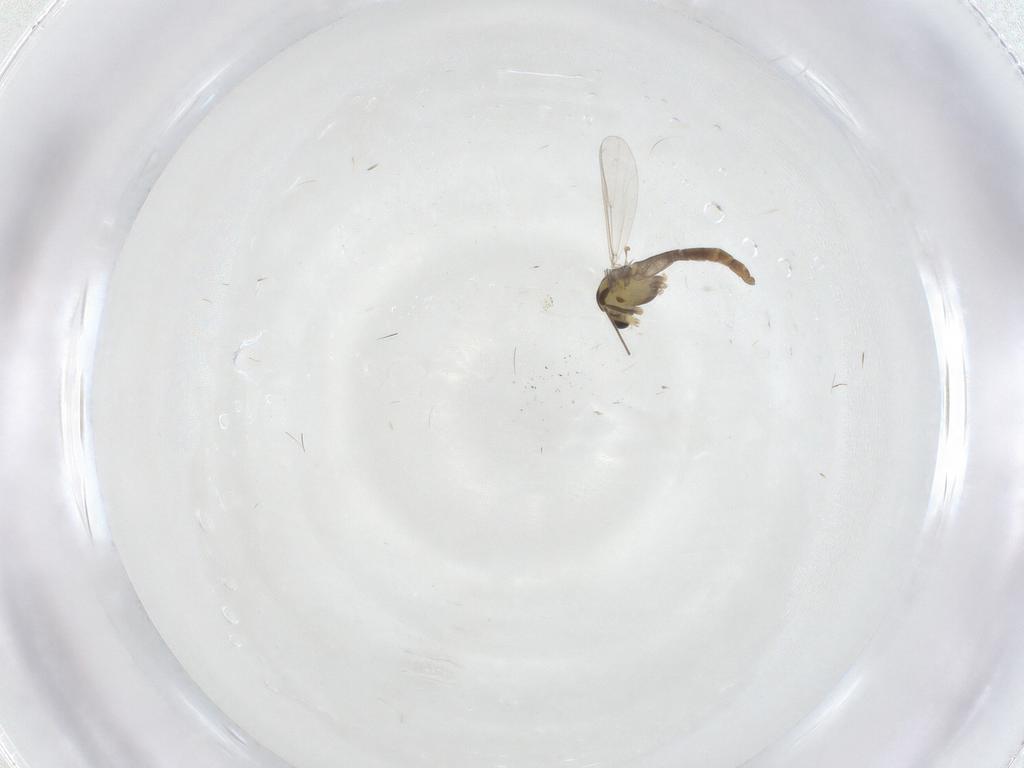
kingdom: Animalia
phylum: Arthropoda
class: Insecta
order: Diptera
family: Chironomidae
